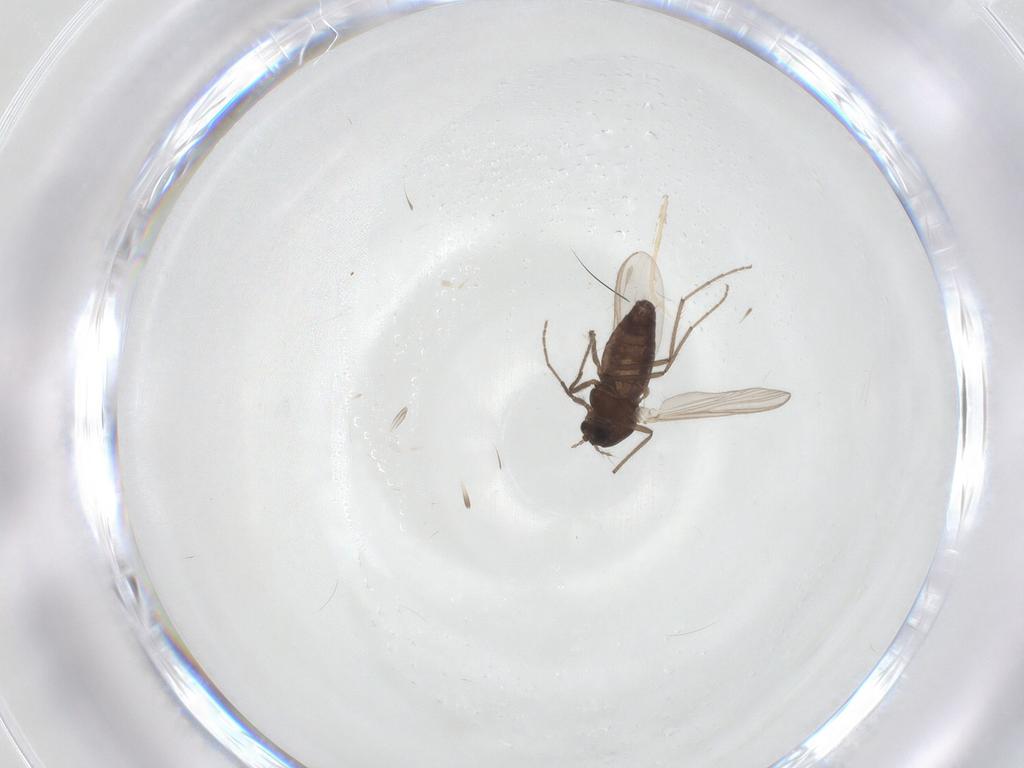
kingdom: Animalia
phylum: Arthropoda
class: Insecta
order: Diptera
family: Chironomidae
